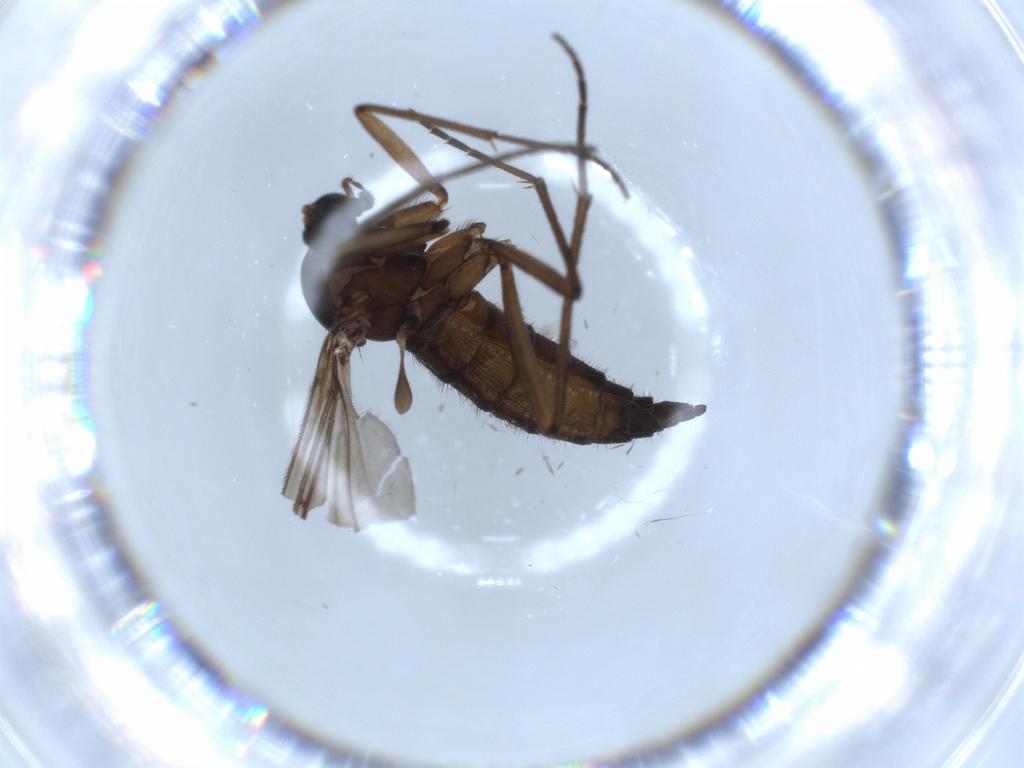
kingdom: Animalia
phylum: Arthropoda
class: Insecta
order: Diptera
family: Sciaridae
